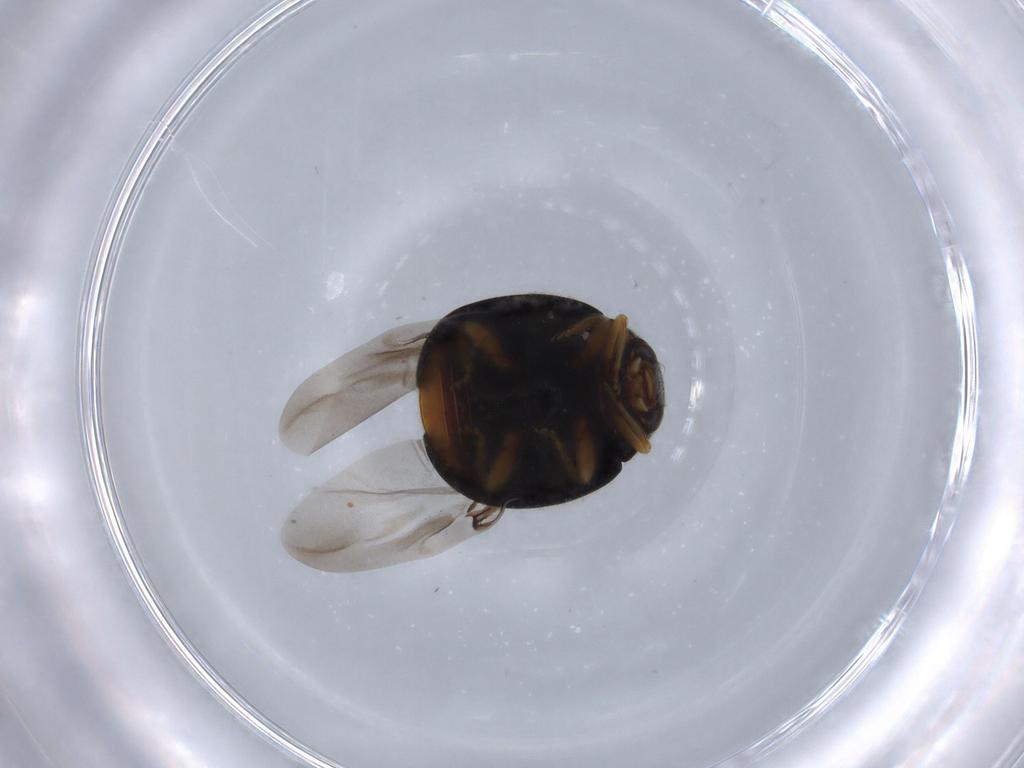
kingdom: Animalia
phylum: Arthropoda
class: Insecta
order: Coleoptera
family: Coccinellidae
